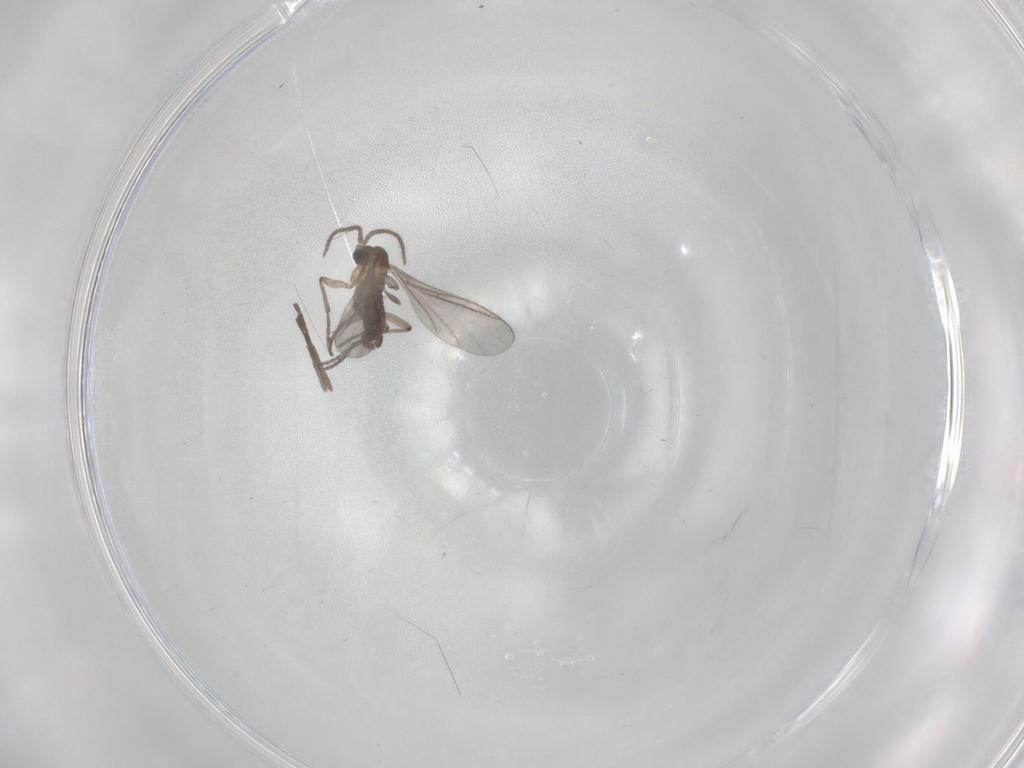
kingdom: Animalia
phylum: Arthropoda
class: Insecta
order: Diptera
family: Sciaridae
